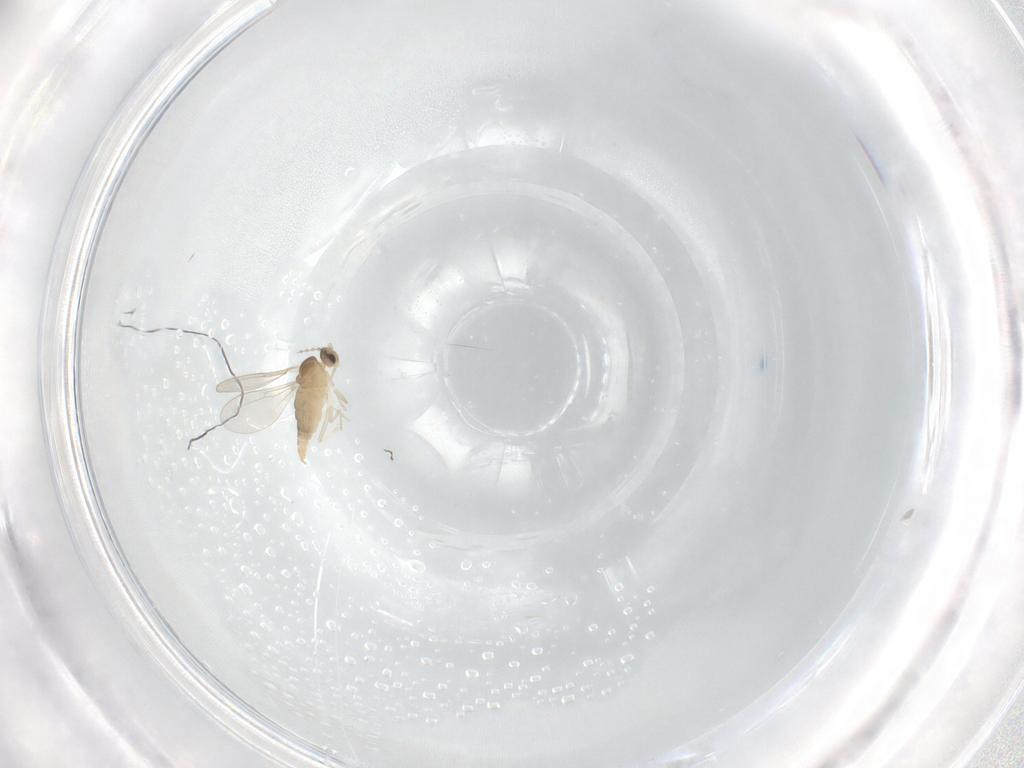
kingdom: Animalia
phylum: Arthropoda
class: Insecta
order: Diptera
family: Cecidomyiidae
